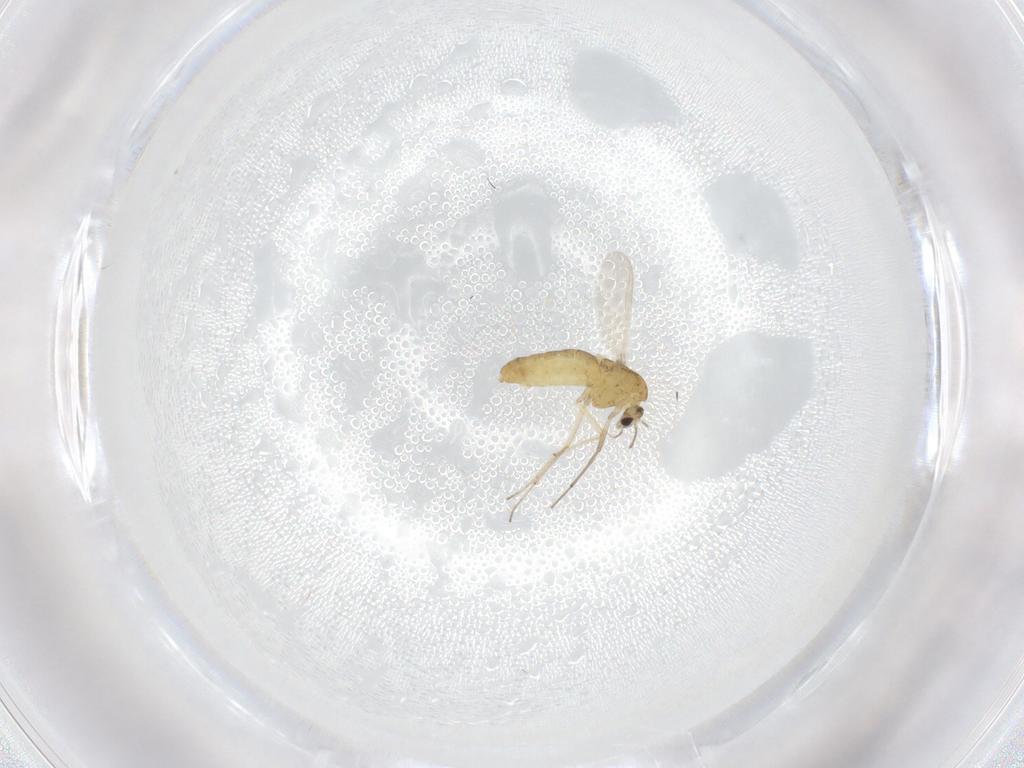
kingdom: Animalia
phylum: Arthropoda
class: Insecta
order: Diptera
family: Chironomidae
